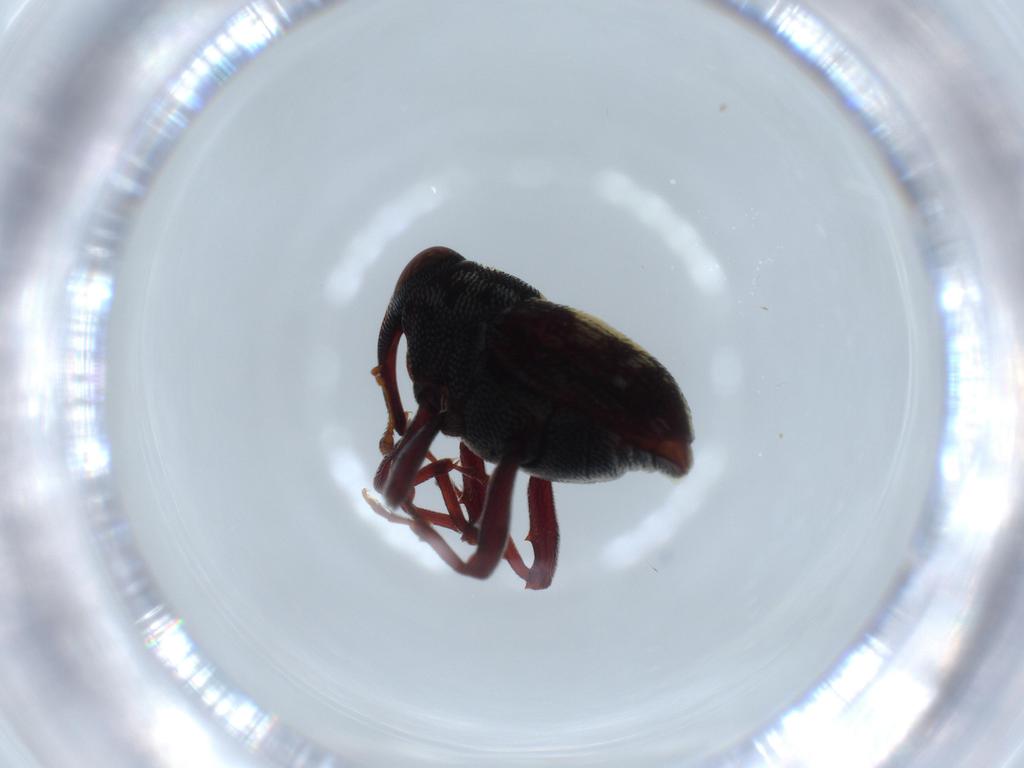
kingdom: Animalia
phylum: Arthropoda
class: Insecta
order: Coleoptera
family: Curculionidae
